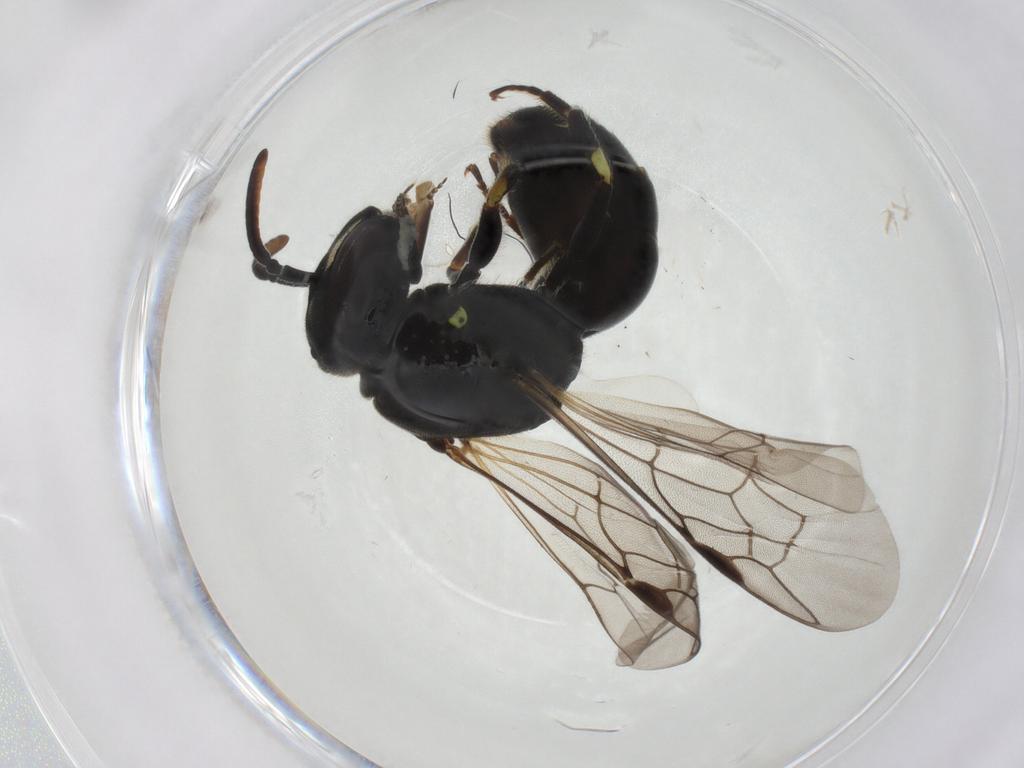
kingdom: Animalia
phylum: Arthropoda
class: Insecta
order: Hymenoptera
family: Colletidae
